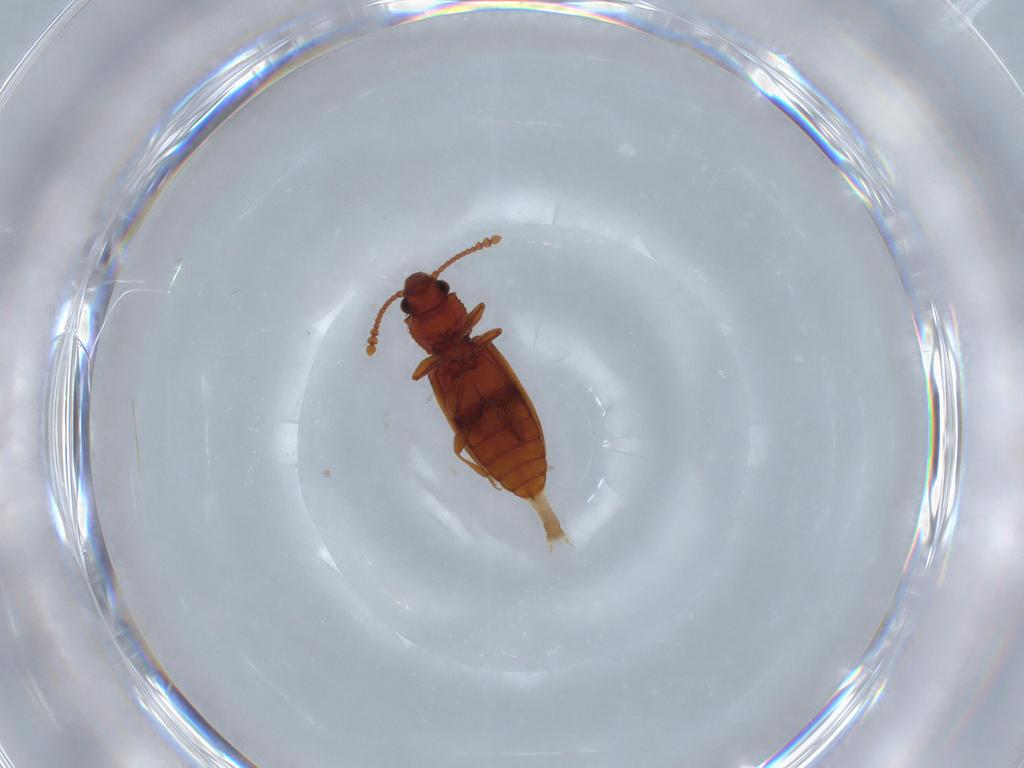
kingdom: Animalia
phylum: Arthropoda
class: Insecta
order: Coleoptera
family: Silvanidae
